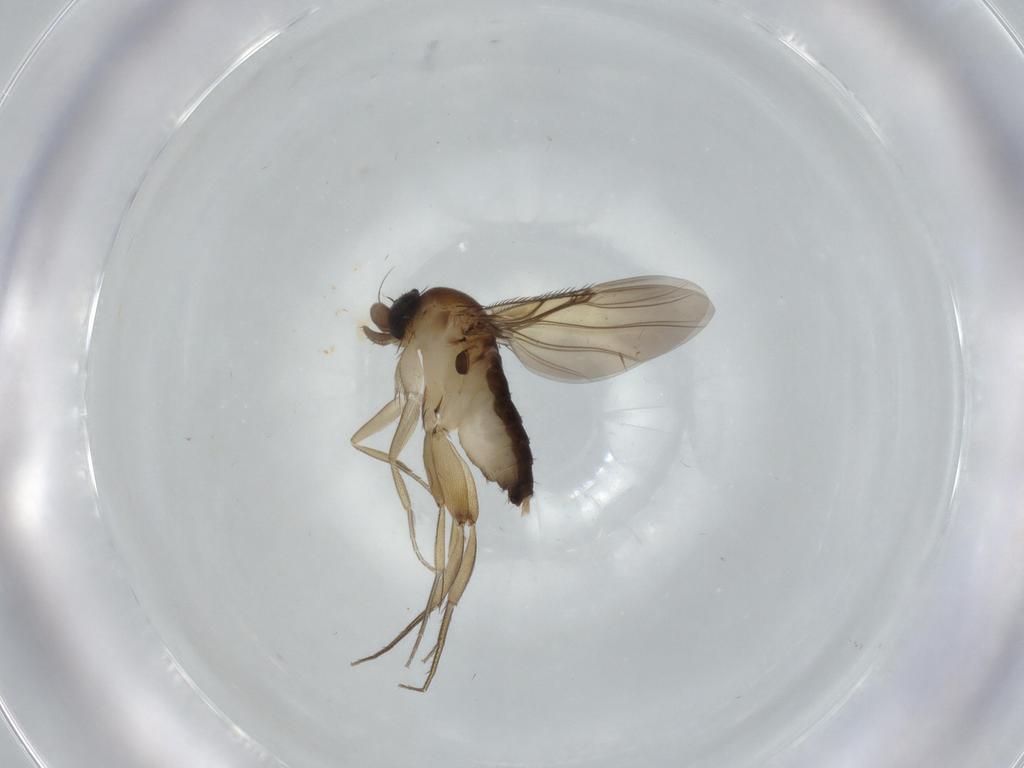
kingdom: Animalia
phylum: Arthropoda
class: Insecta
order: Diptera
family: Phoridae
